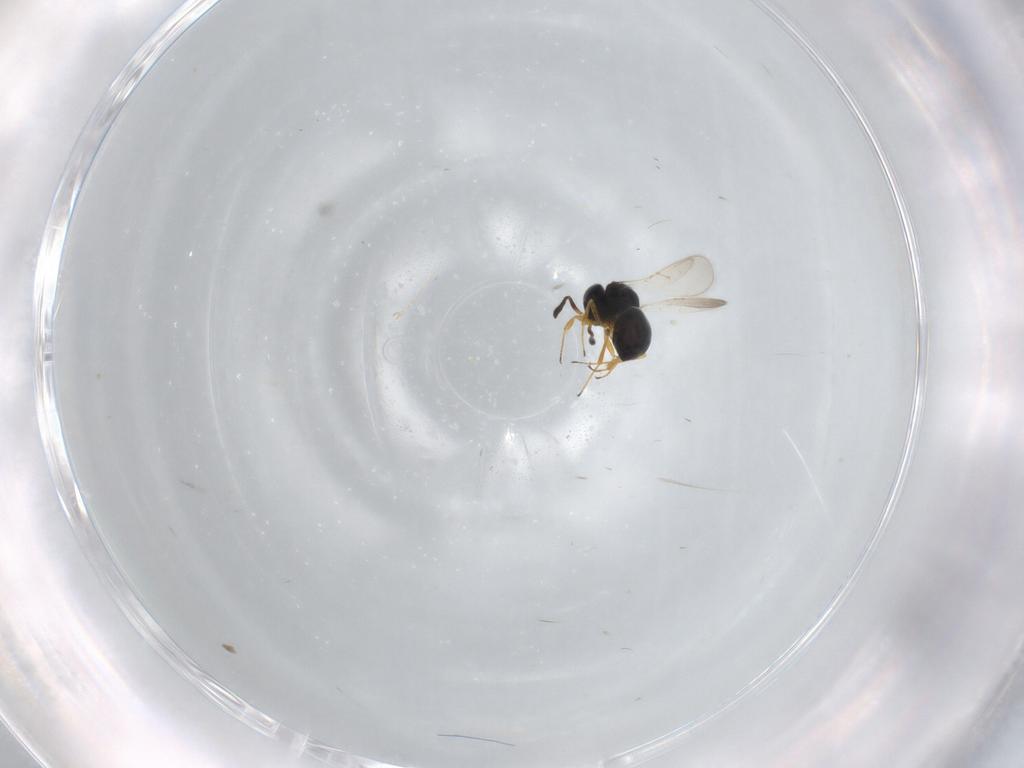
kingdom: Animalia
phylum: Arthropoda
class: Insecta
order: Hymenoptera
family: Scelionidae
